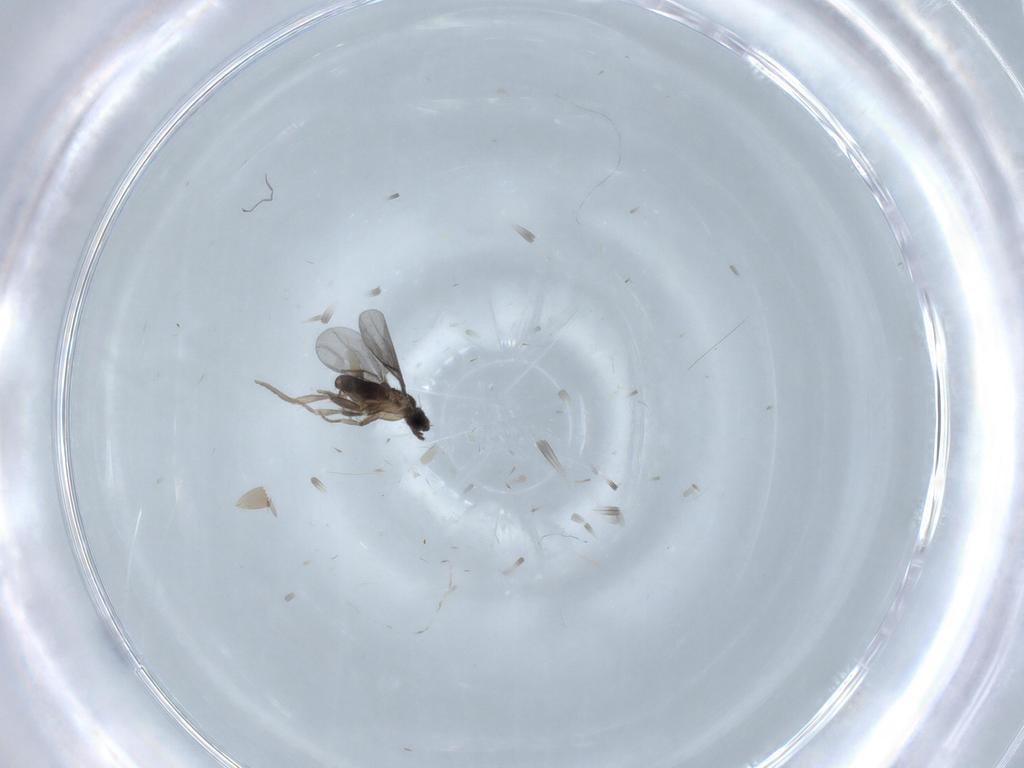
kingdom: Animalia
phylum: Arthropoda
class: Insecta
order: Diptera
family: Ceratopogonidae
